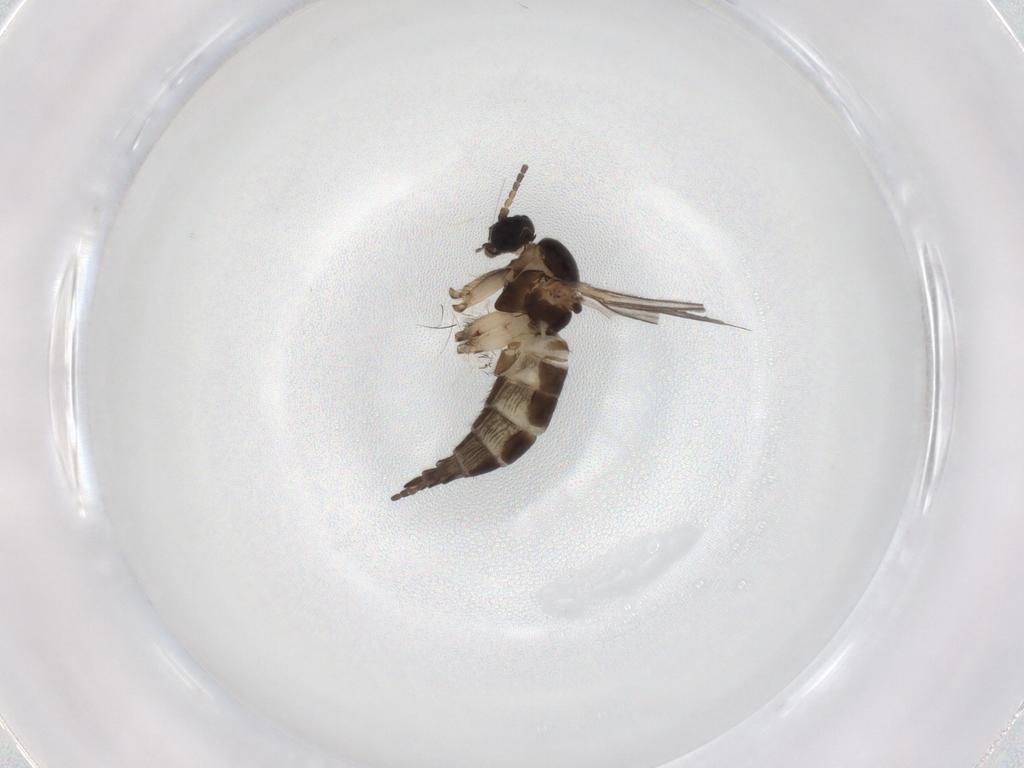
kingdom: Animalia
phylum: Arthropoda
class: Insecta
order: Diptera
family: Sciaridae
